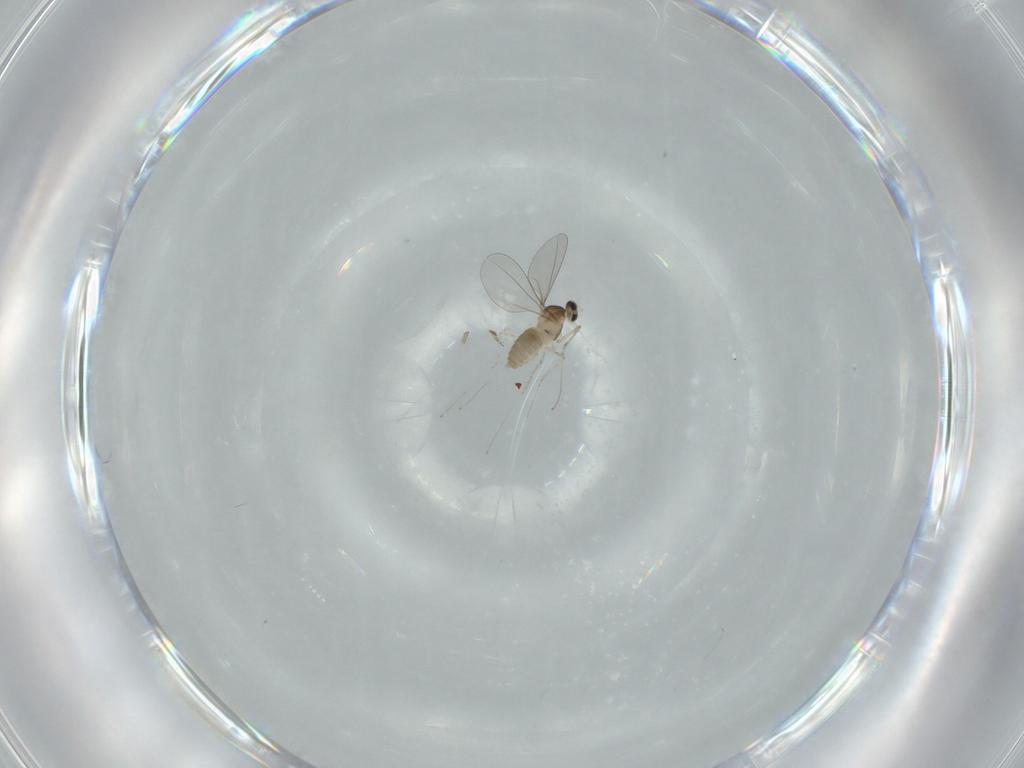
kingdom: Animalia
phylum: Arthropoda
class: Insecta
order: Diptera
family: Cecidomyiidae
